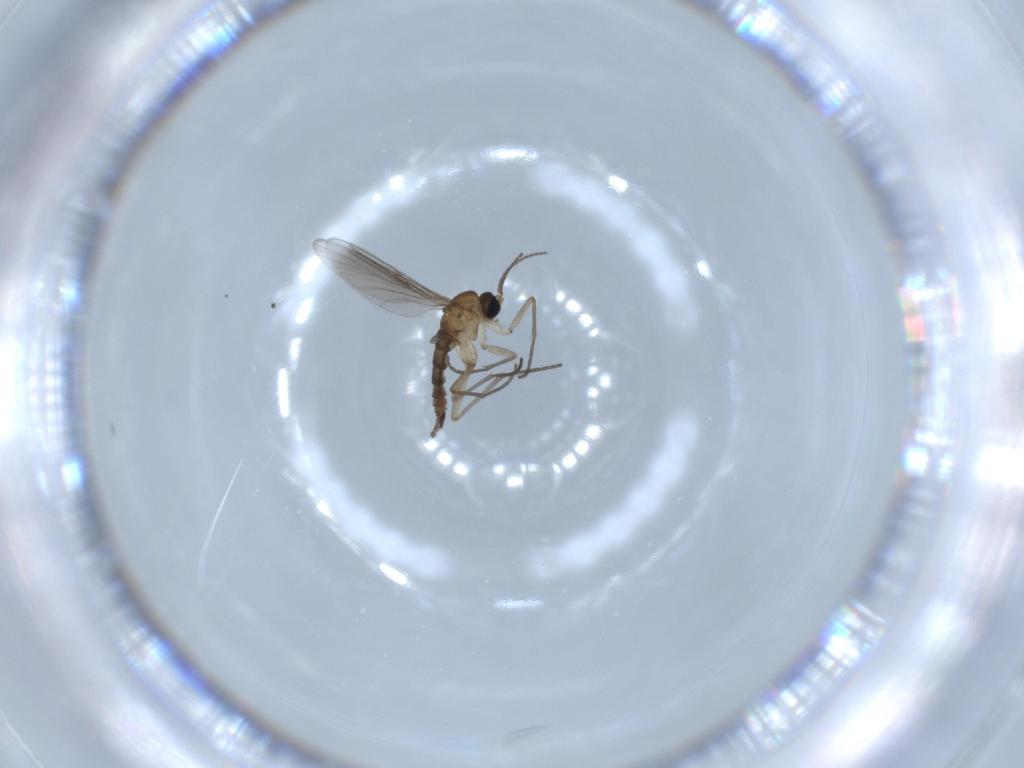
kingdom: Animalia
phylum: Arthropoda
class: Insecta
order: Diptera
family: Sciaridae
